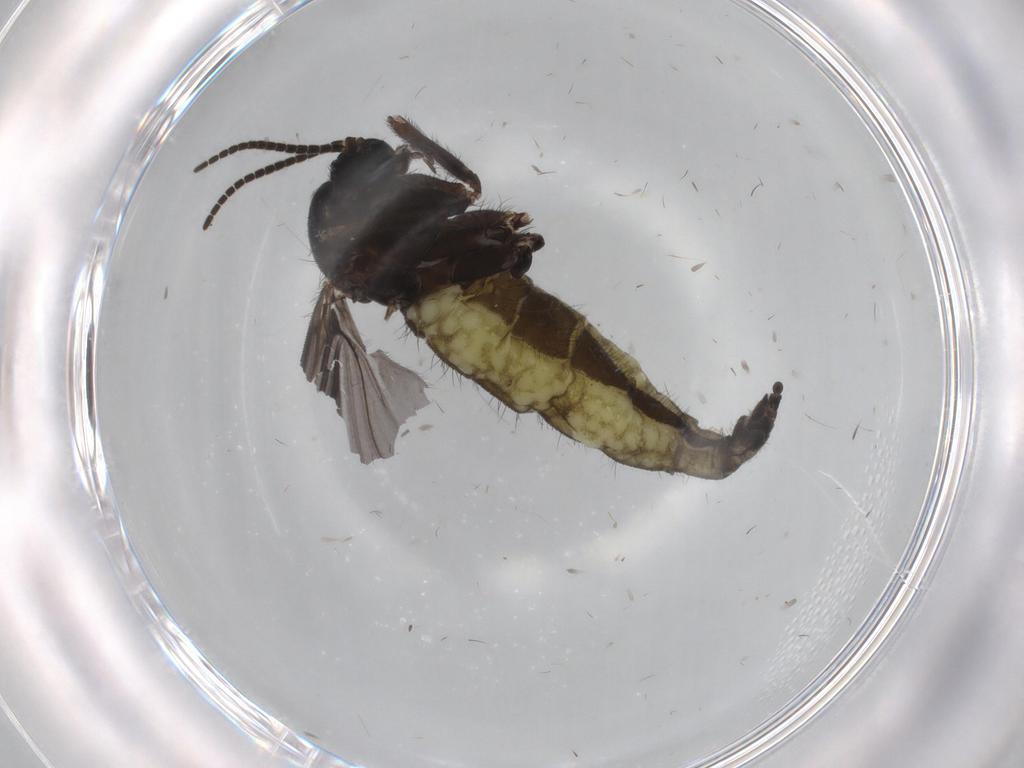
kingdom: Animalia
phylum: Arthropoda
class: Insecta
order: Diptera
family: Sciaridae
